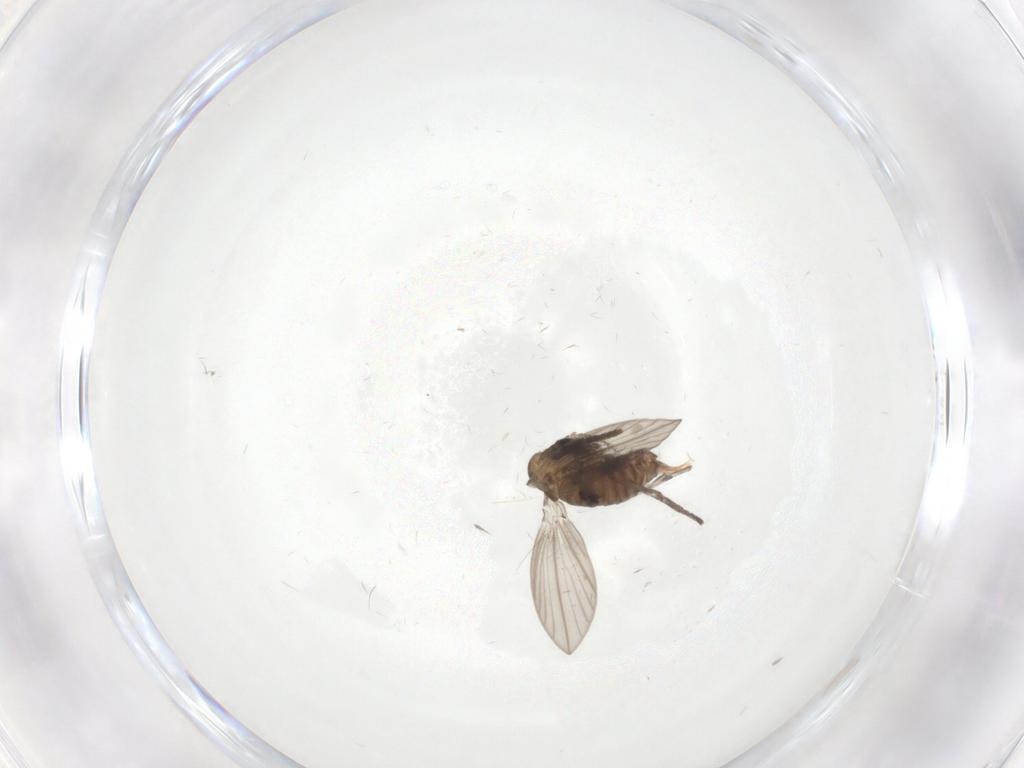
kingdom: Animalia
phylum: Arthropoda
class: Insecta
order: Diptera
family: Psychodidae
